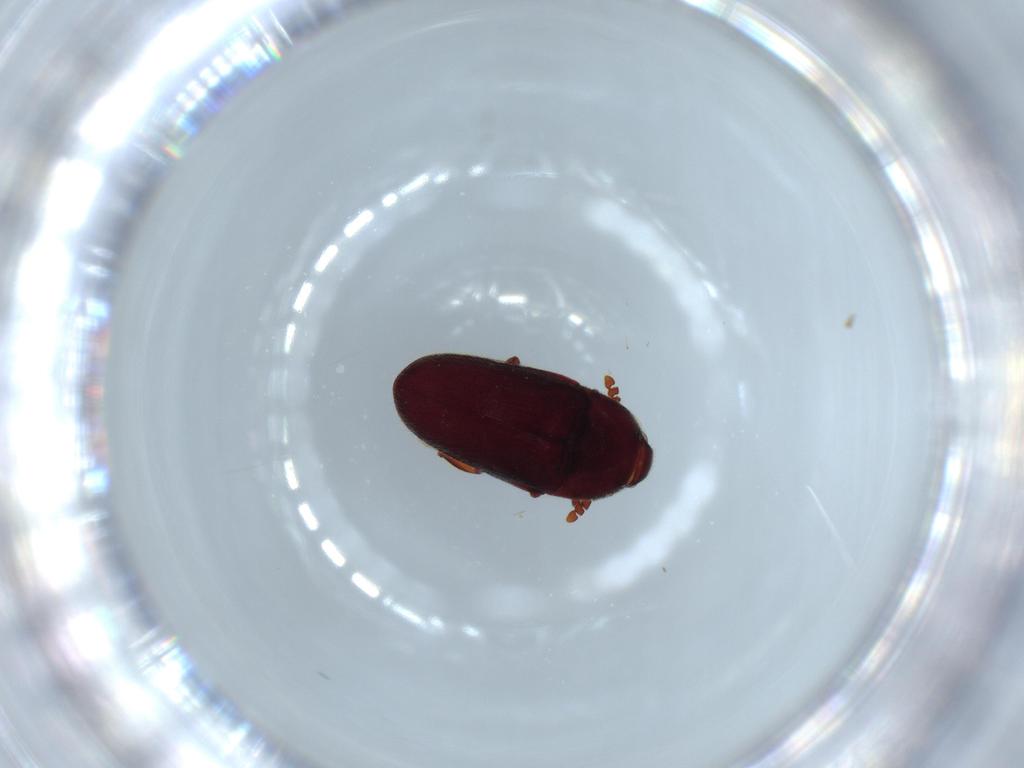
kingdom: Animalia
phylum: Arthropoda
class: Insecta
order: Coleoptera
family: Throscidae
